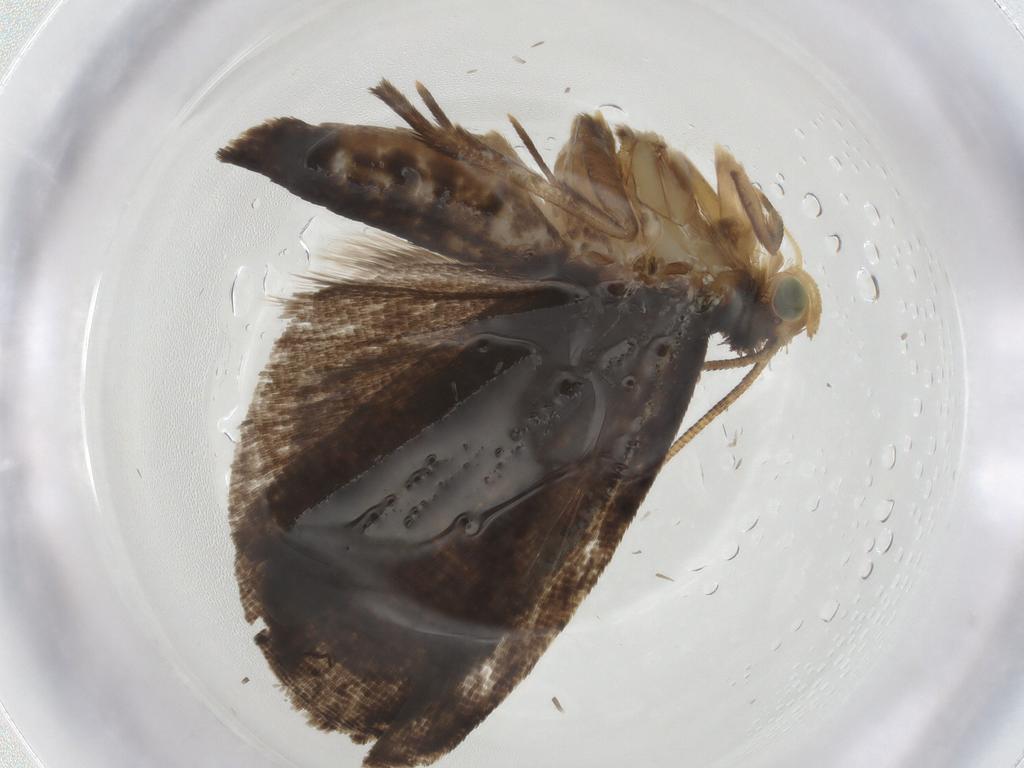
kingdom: Animalia
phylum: Arthropoda
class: Insecta
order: Lepidoptera
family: Tortricidae
